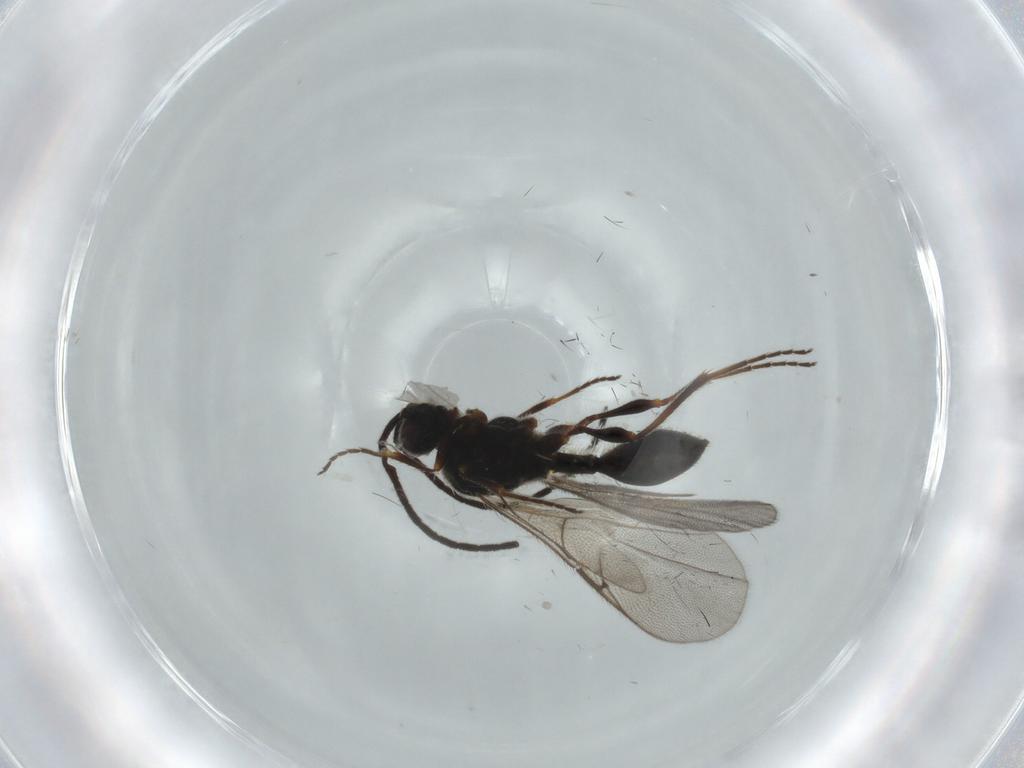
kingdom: Animalia
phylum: Arthropoda
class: Insecta
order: Hymenoptera
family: Diapriidae
